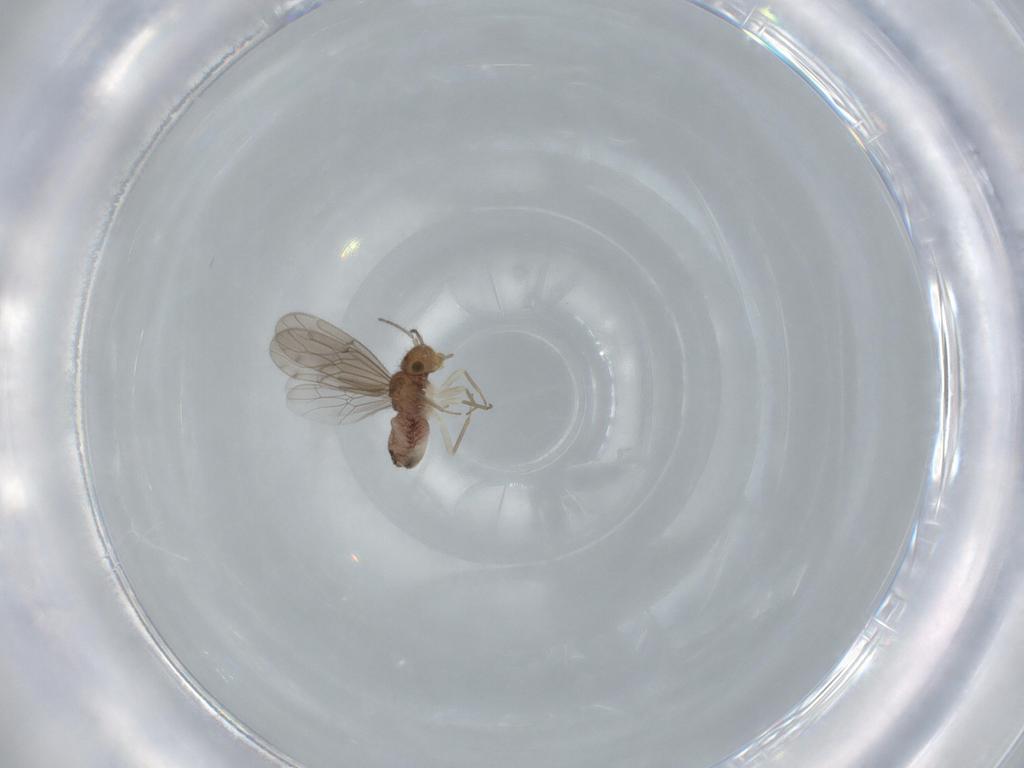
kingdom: Animalia
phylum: Arthropoda
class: Insecta
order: Psocodea
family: Ectopsocidae
